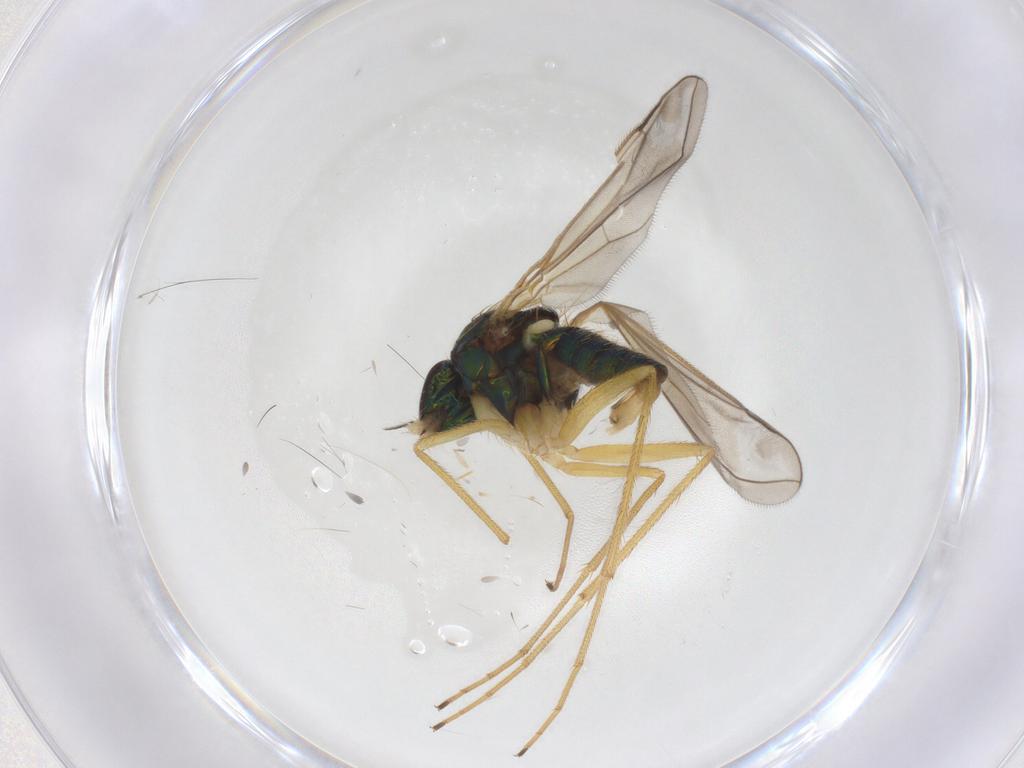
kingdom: Animalia
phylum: Arthropoda
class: Insecta
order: Diptera
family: Dolichopodidae
